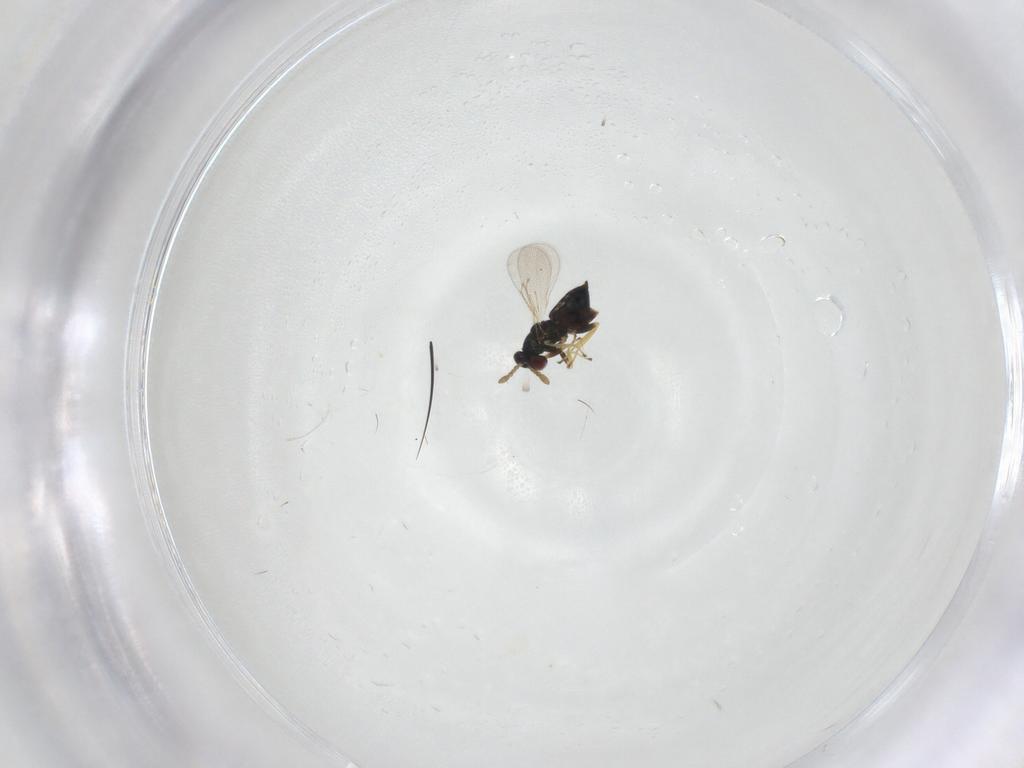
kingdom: Animalia
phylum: Arthropoda
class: Insecta
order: Hymenoptera
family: Eulophidae
